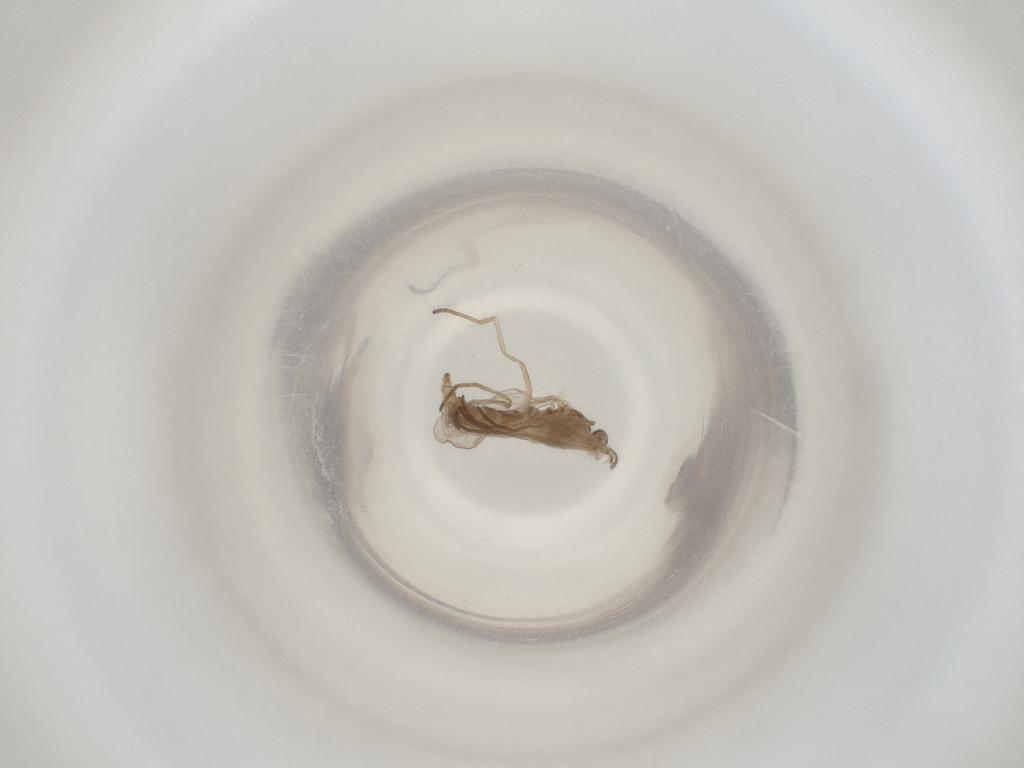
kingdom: Animalia
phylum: Arthropoda
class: Insecta
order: Diptera
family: Cecidomyiidae
